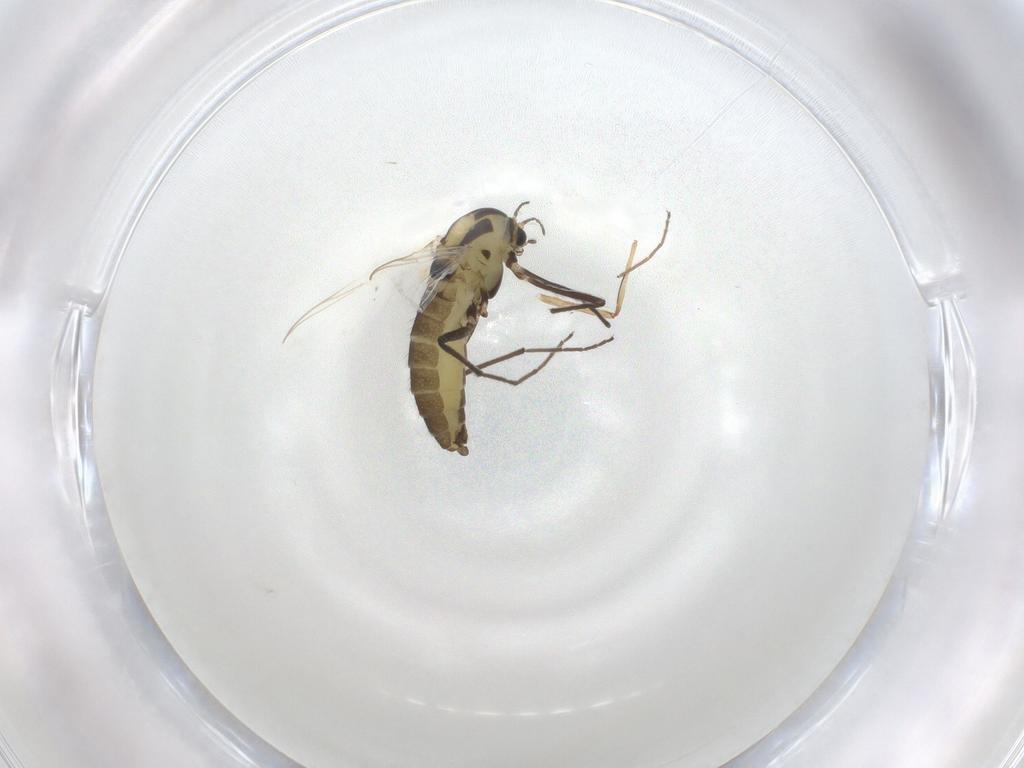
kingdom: Animalia
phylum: Arthropoda
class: Insecta
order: Diptera
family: Chironomidae
